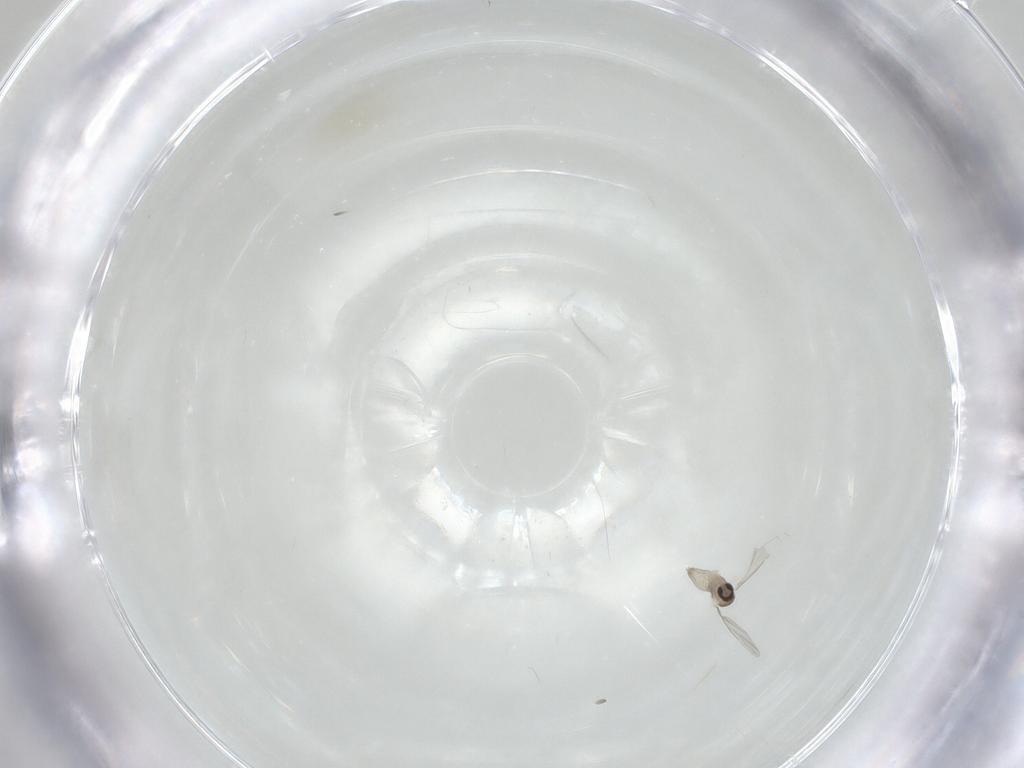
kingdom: Animalia
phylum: Arthropoda
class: Insecta
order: Diptera
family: Cecidomyiidae
